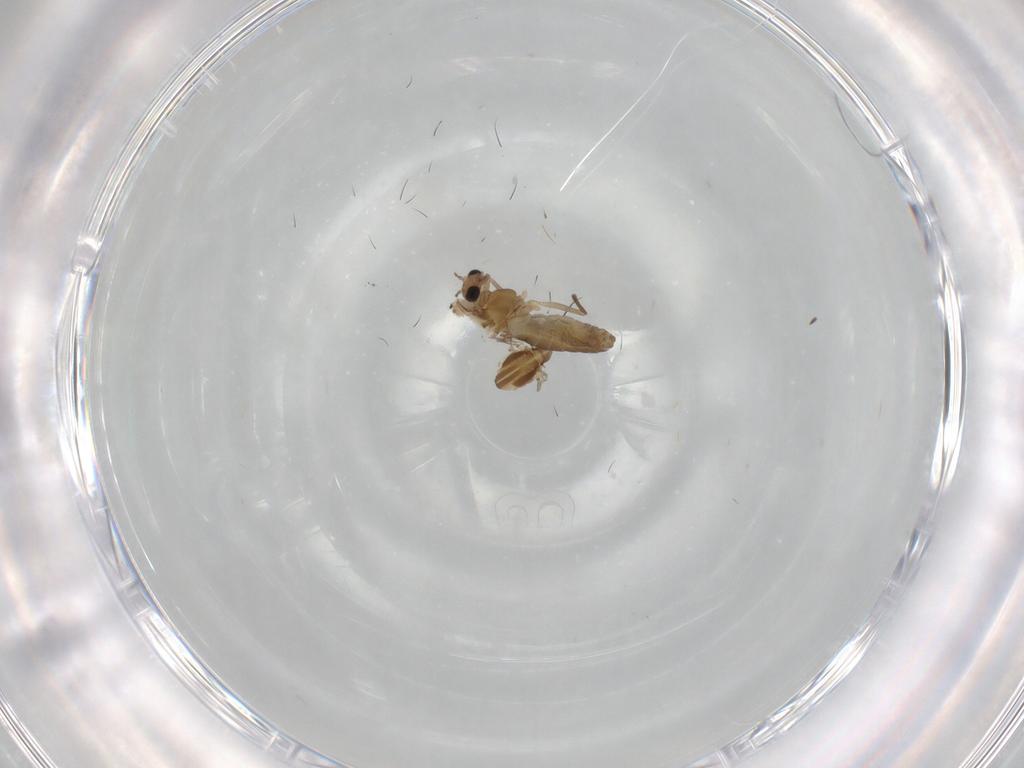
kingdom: Animalia
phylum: Arthropoda
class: Insecta
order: Diptera
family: Chironomidae
